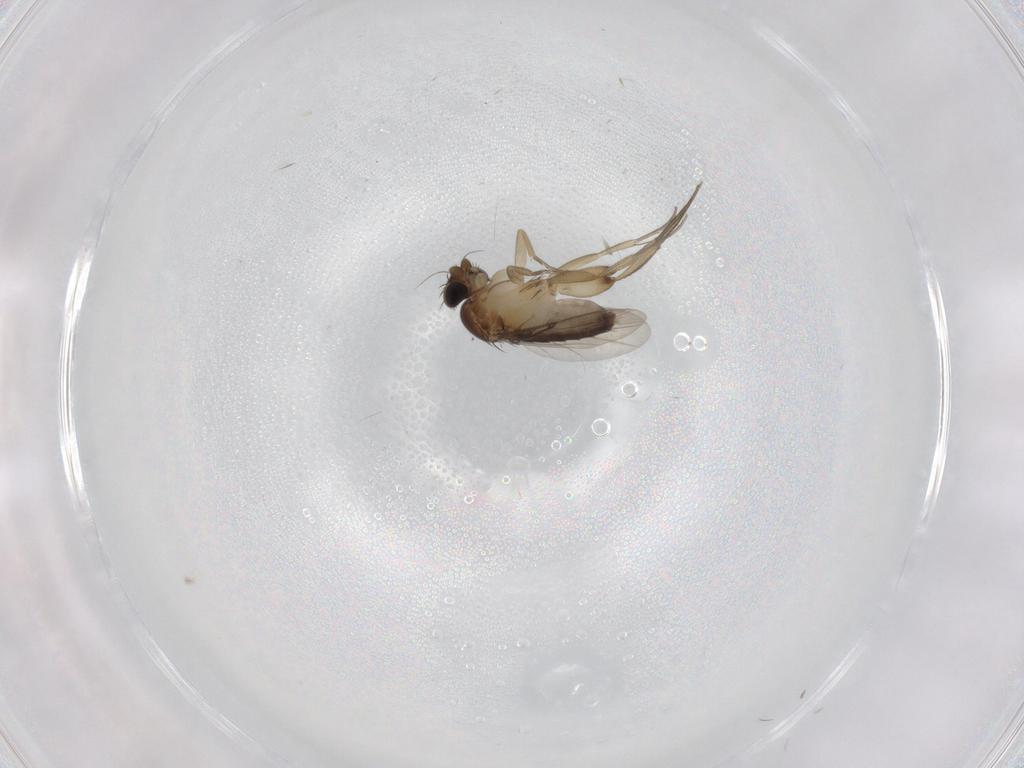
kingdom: Animalia
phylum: Arthropoda
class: Insecta
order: Diptera
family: Phoridae
